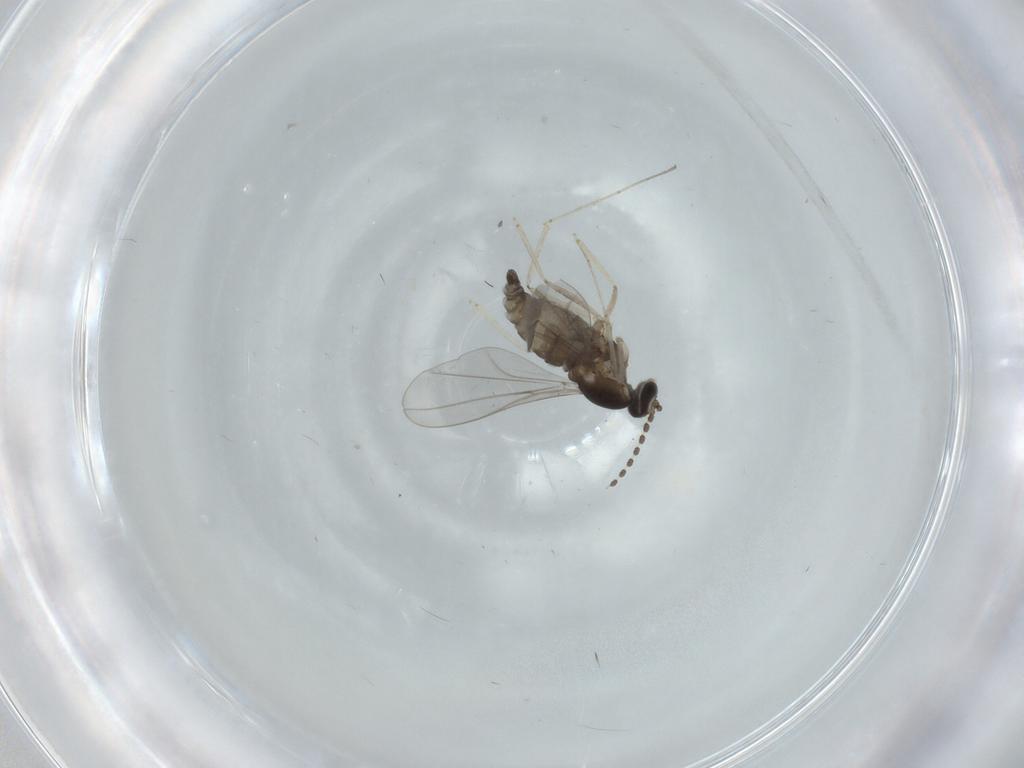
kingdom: Animalia
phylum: Arthropoda
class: Insecta
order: Diptera
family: Cecidomyiidae
